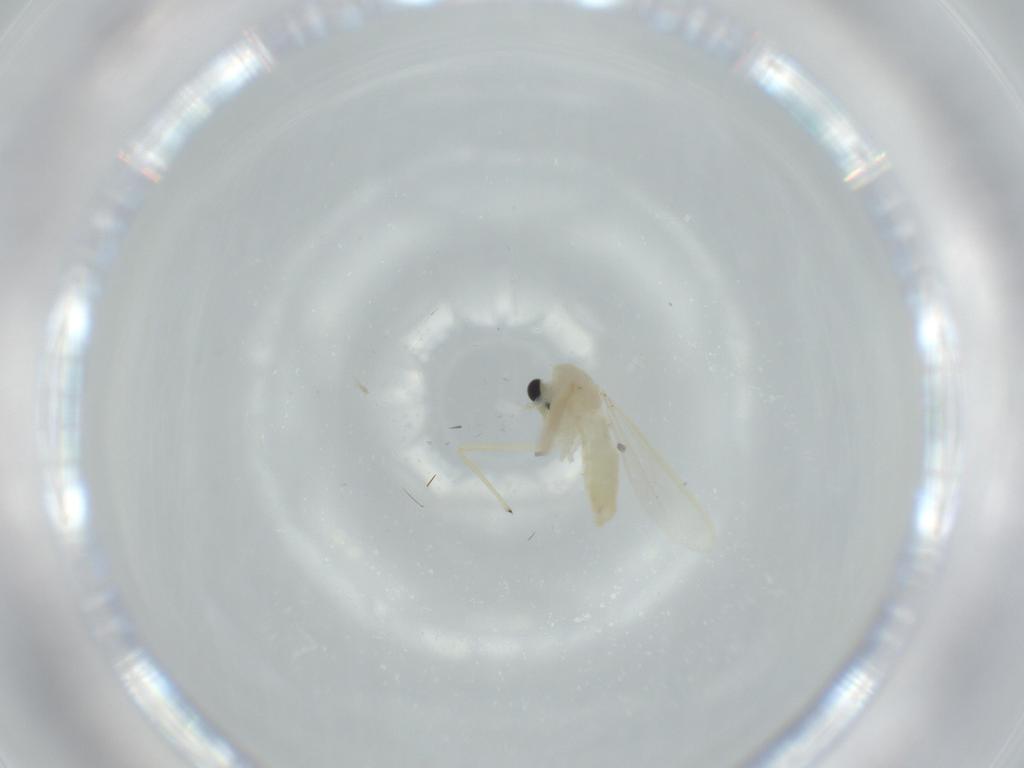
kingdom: Animalia
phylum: Arthropoda
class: Insecta
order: Diptera
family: Chironomidae
